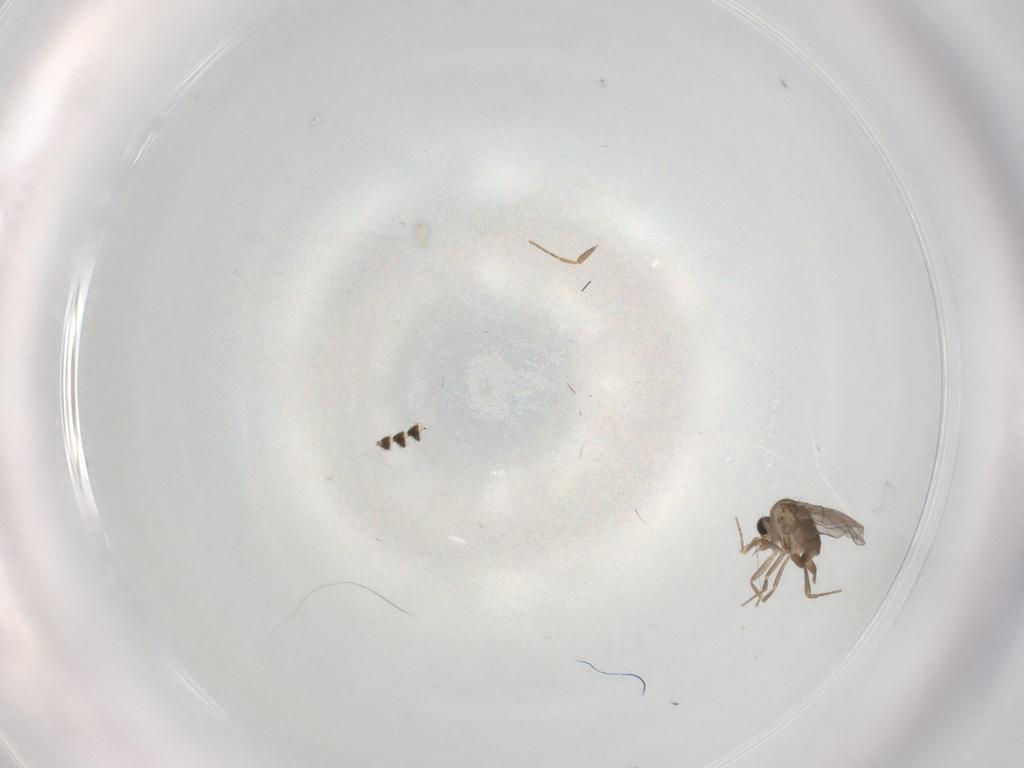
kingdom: Animalia
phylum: Arthropoda
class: Insecta
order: Diptera
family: Ditomyiidae
